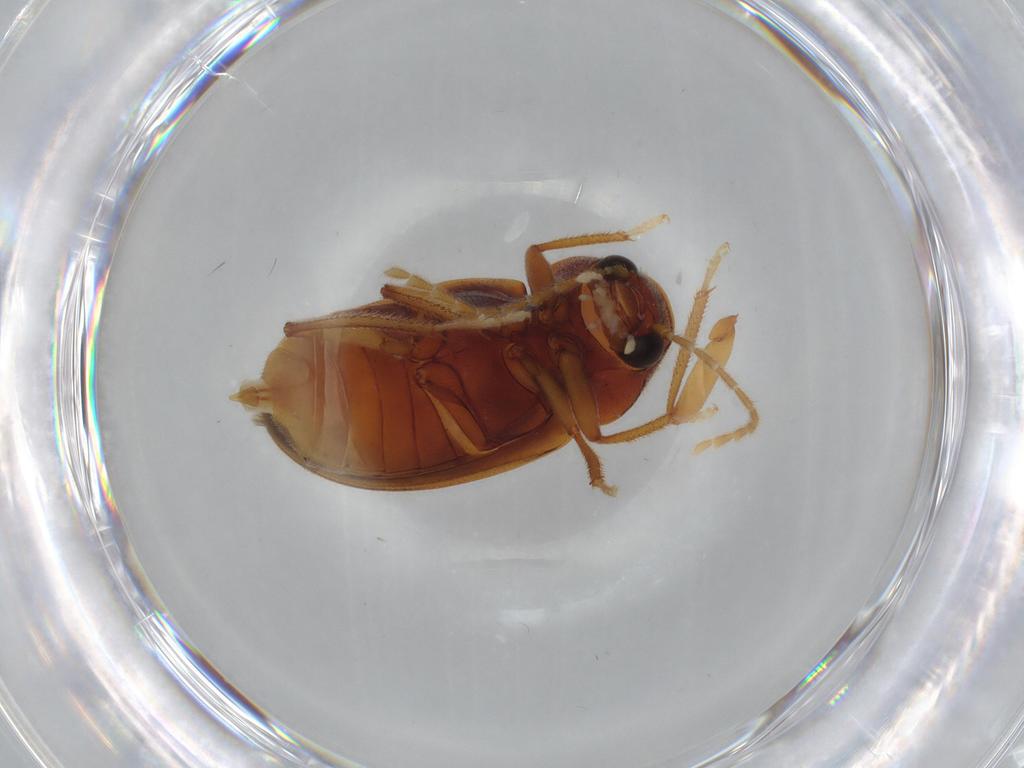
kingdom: Animalia
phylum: Arthropoda
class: Insecta
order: Coleoptera
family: Ptilodactylidae
